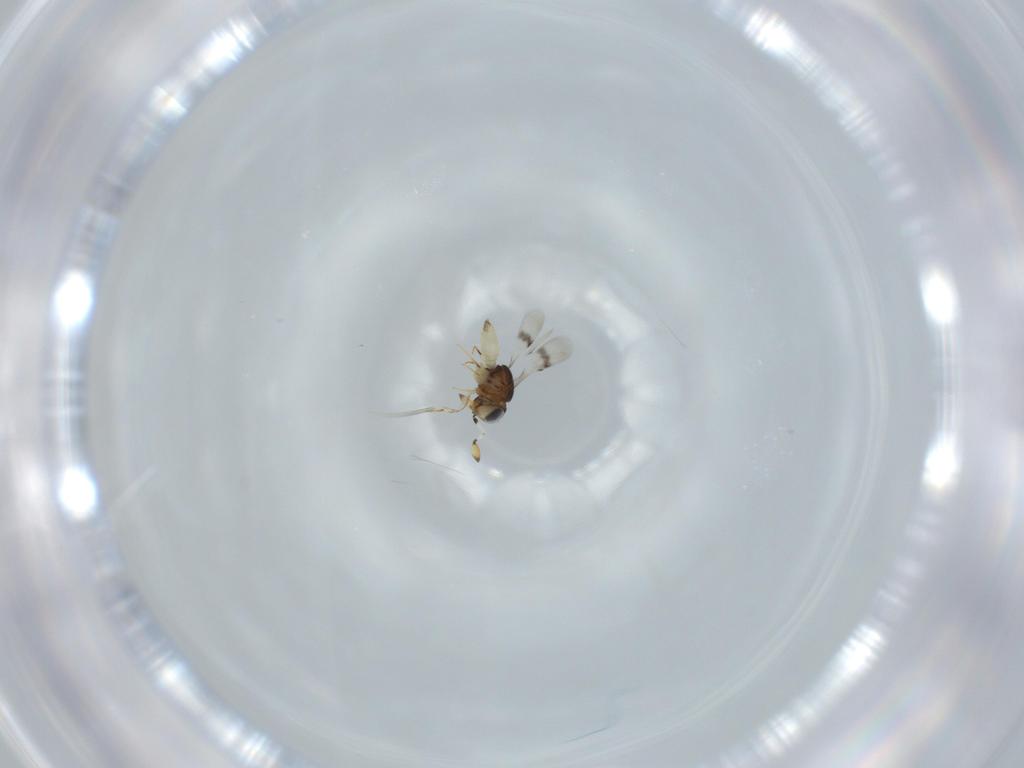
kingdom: Animalia
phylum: Arthropoda
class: Insecta
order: Hymenoptera
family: Scelionidae
